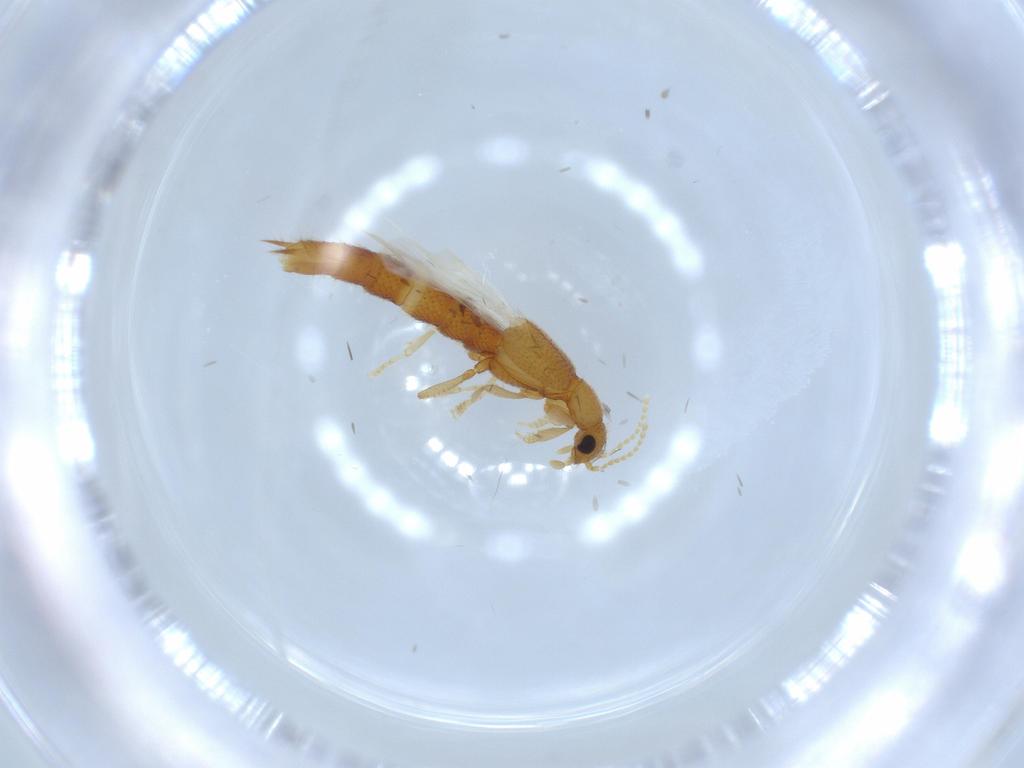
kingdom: Animalia
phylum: Arthropoda
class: Insecta
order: Coleoptera
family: Staphylinidae
